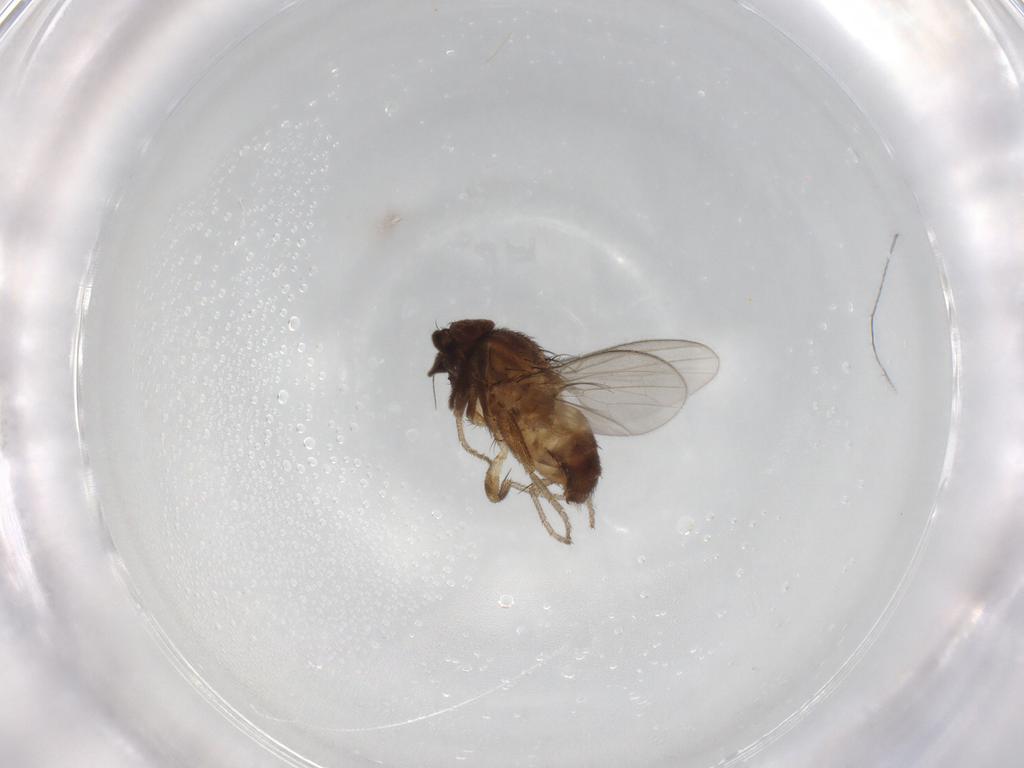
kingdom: Animalia
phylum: Arthropoda
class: Insecta
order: Diptera
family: Milichiidae
